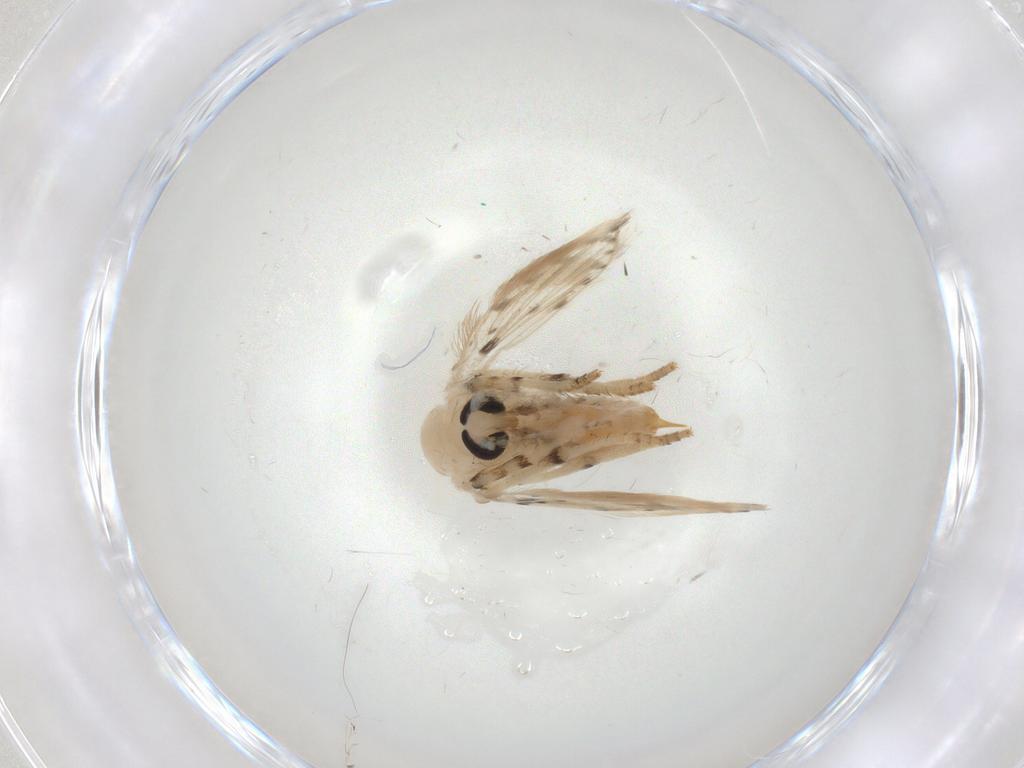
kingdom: Animalia
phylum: Arthropoda
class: Insecta
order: Diptera
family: Psychodidae
